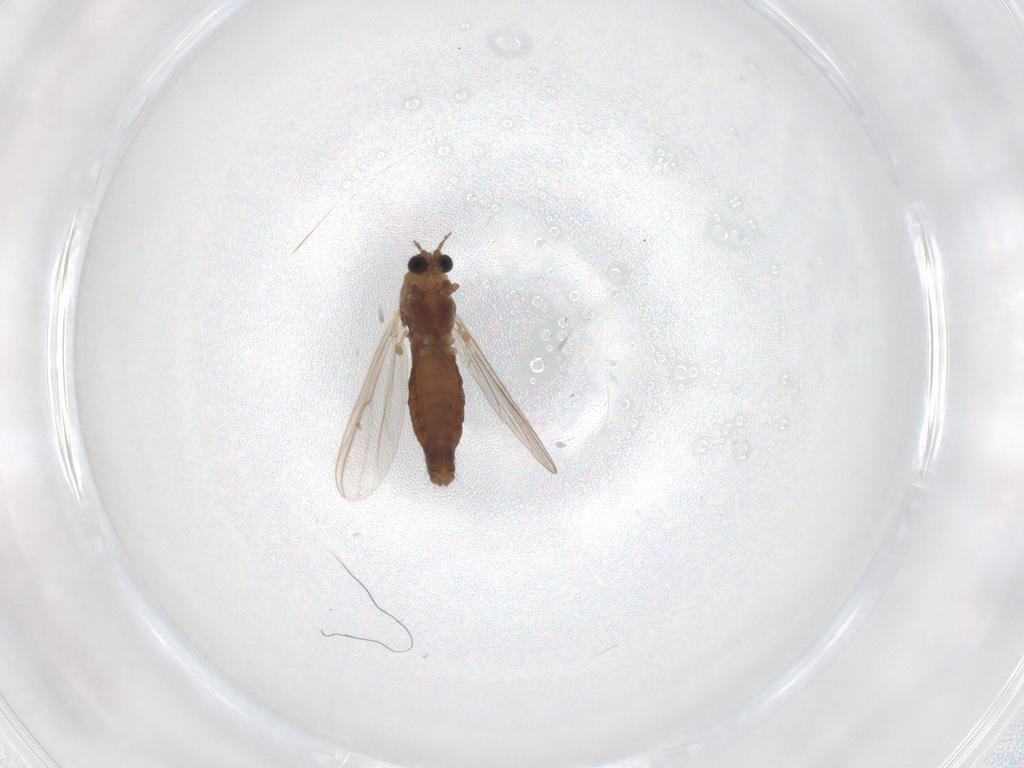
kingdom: Animalia
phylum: Arthropoda
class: Insecta
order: Diptera
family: Chironomidae
